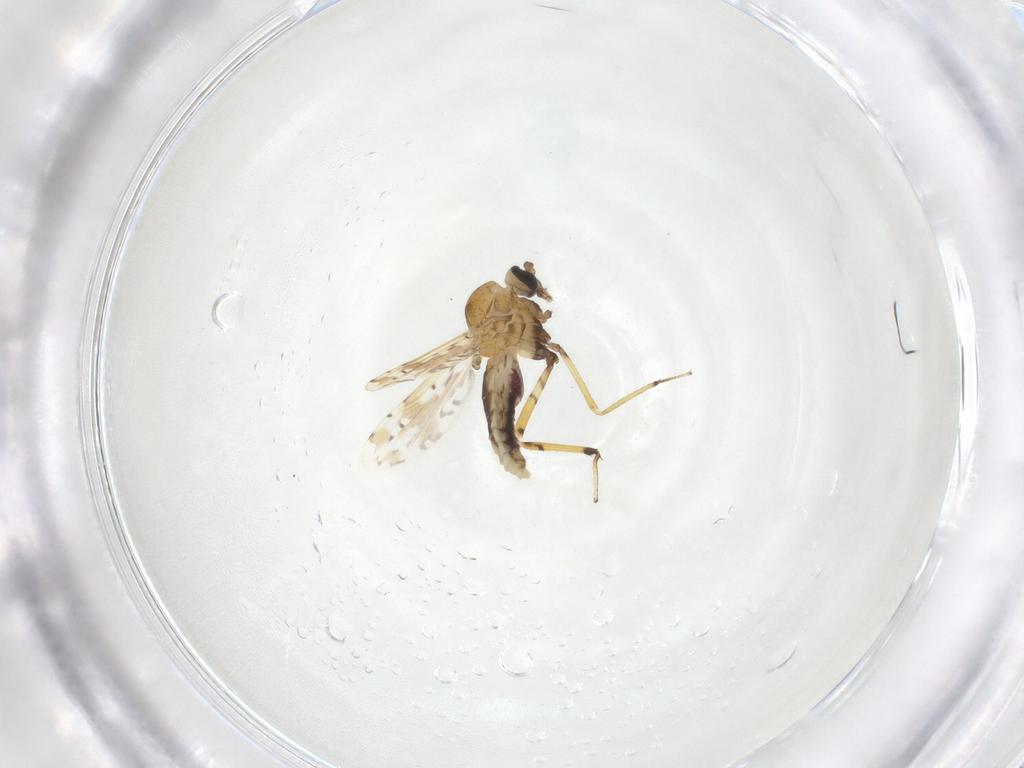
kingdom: Animalia
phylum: Arthropoda
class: Insecta
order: Diptera
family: Ceratopogonidae
